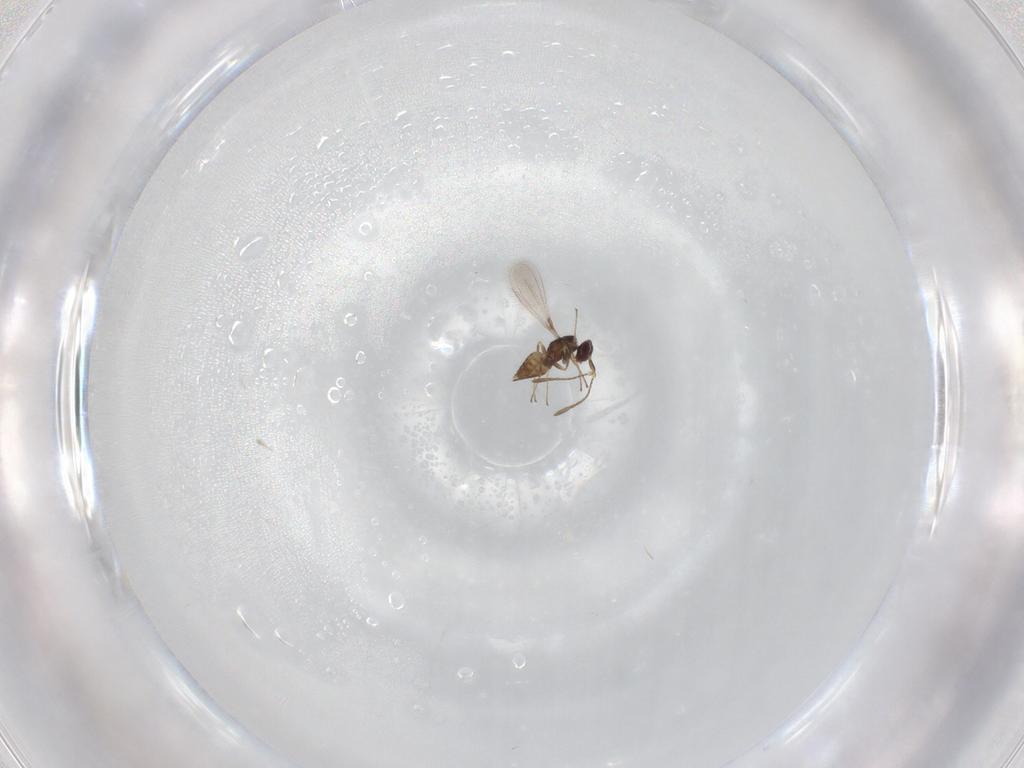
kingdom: Animalia
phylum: Arthropoda
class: Insecta
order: Hymenoptera
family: Mymaridae
